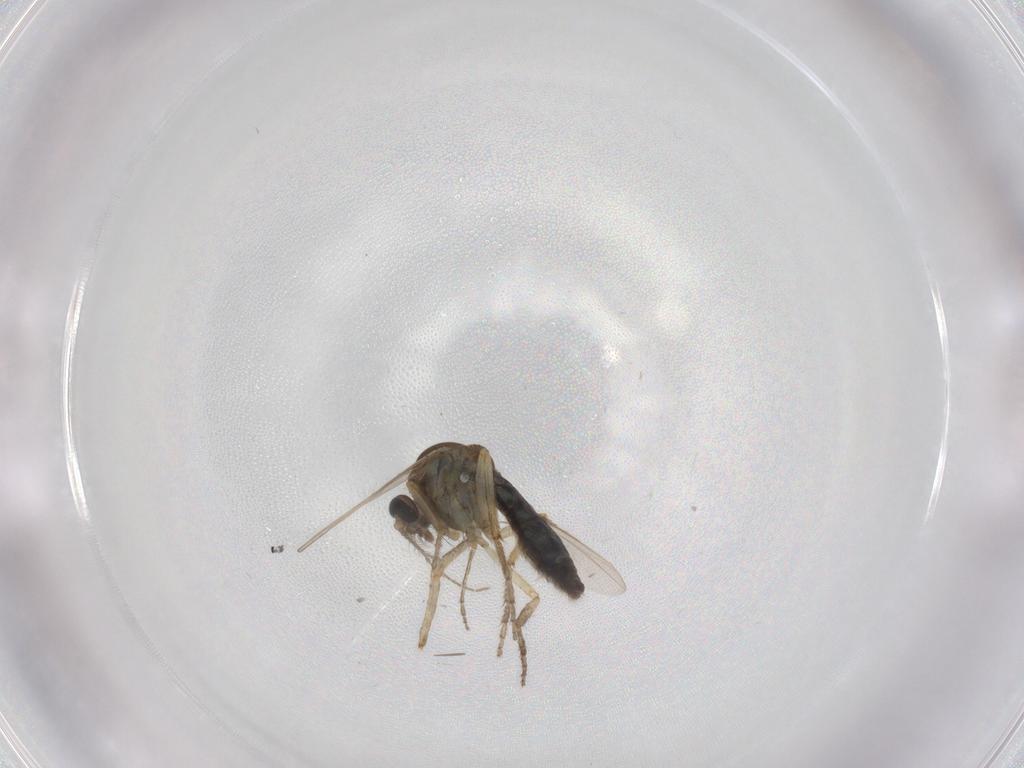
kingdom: Animalia
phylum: Arthropoda
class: Insecta
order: Diptera
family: Ceratopogonidae
